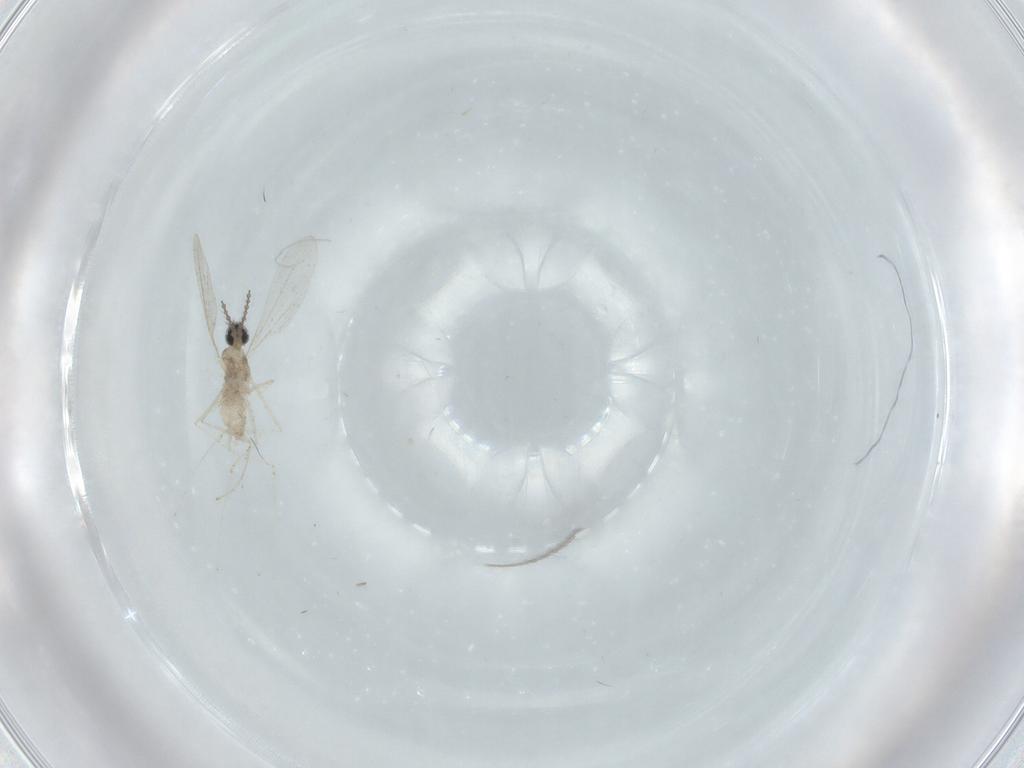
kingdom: Animalia
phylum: Arthropoda
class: Insecta
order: Diptera
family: Cecidomyiidae
